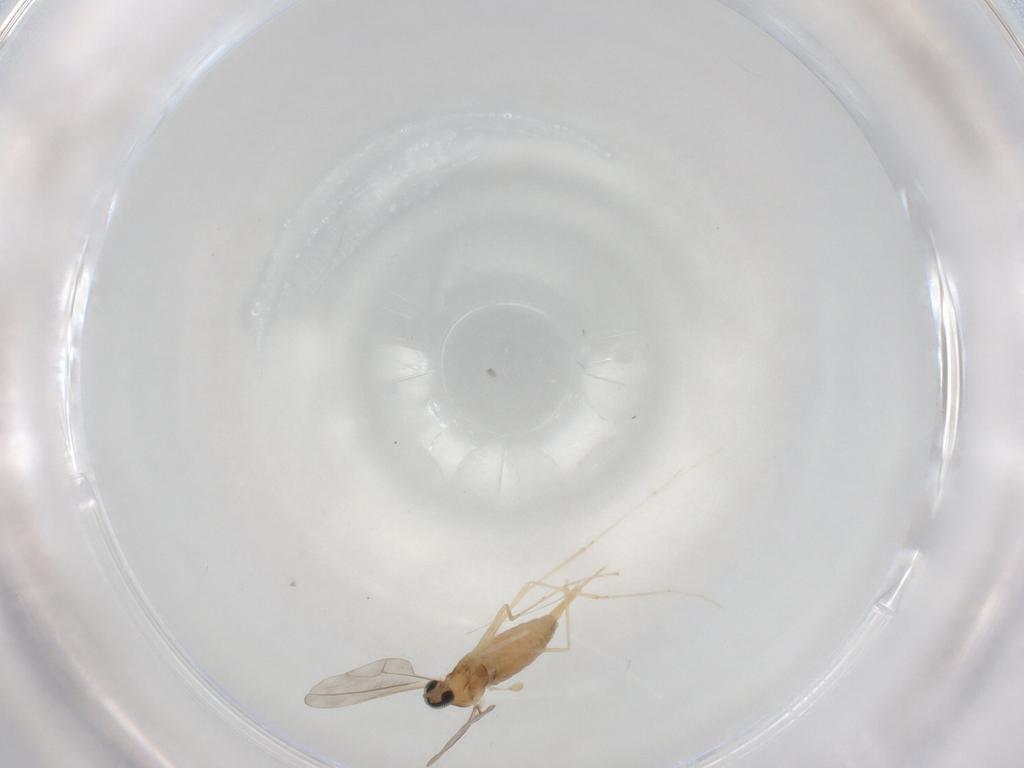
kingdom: Animalia
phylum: Arthropoda
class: Insecta
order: Diptera
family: Cecidomyiidae
